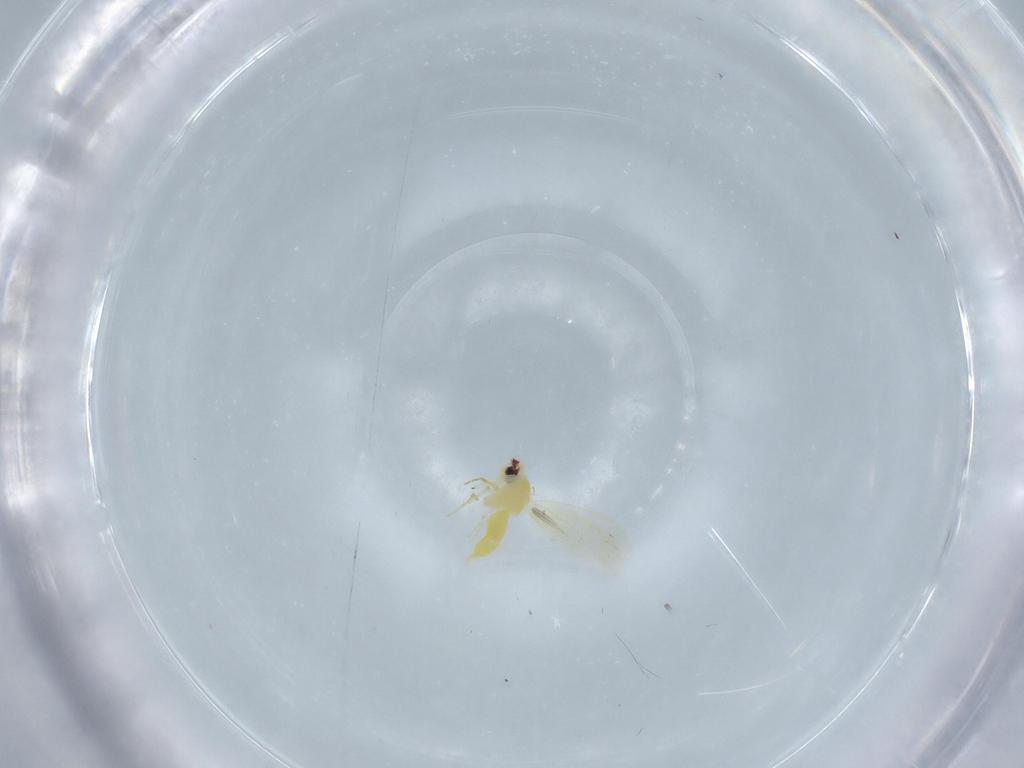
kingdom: Animalia
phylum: Arthropoda
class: Insecta
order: Hemiptera
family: Aleyrodidae
